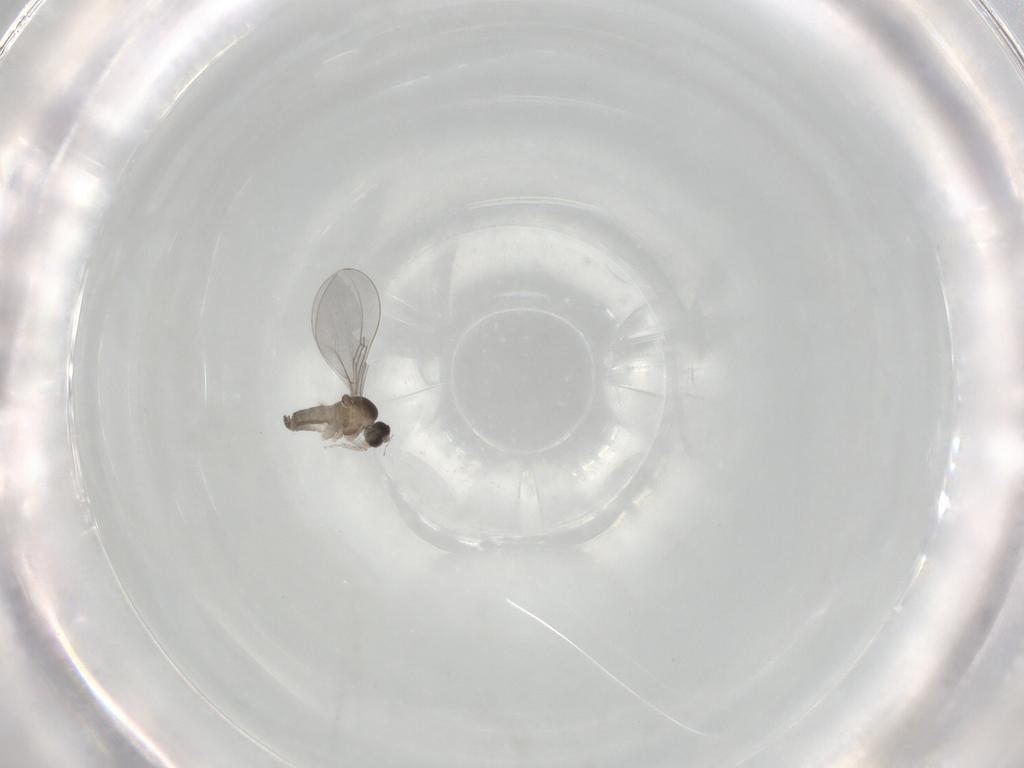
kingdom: Animalia
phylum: Arthropoda
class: Insecta
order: Diptera
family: Cecidomyiidae
